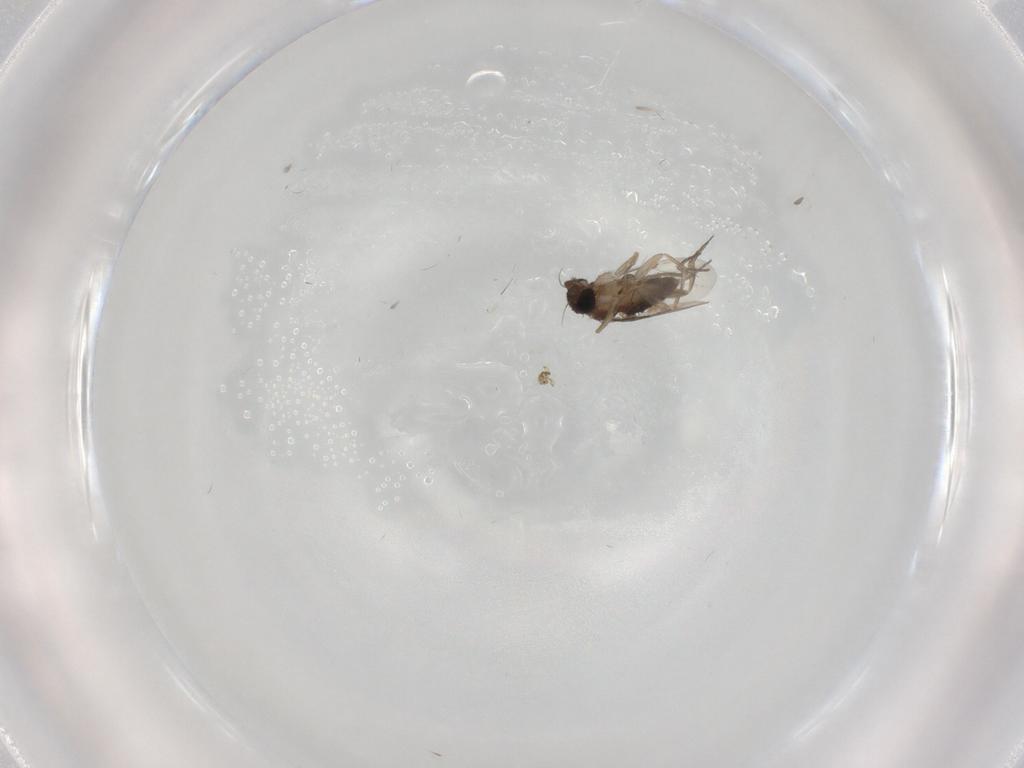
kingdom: Animalia
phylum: Arthropoda
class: Insecta
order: Diptera
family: Phoridae
